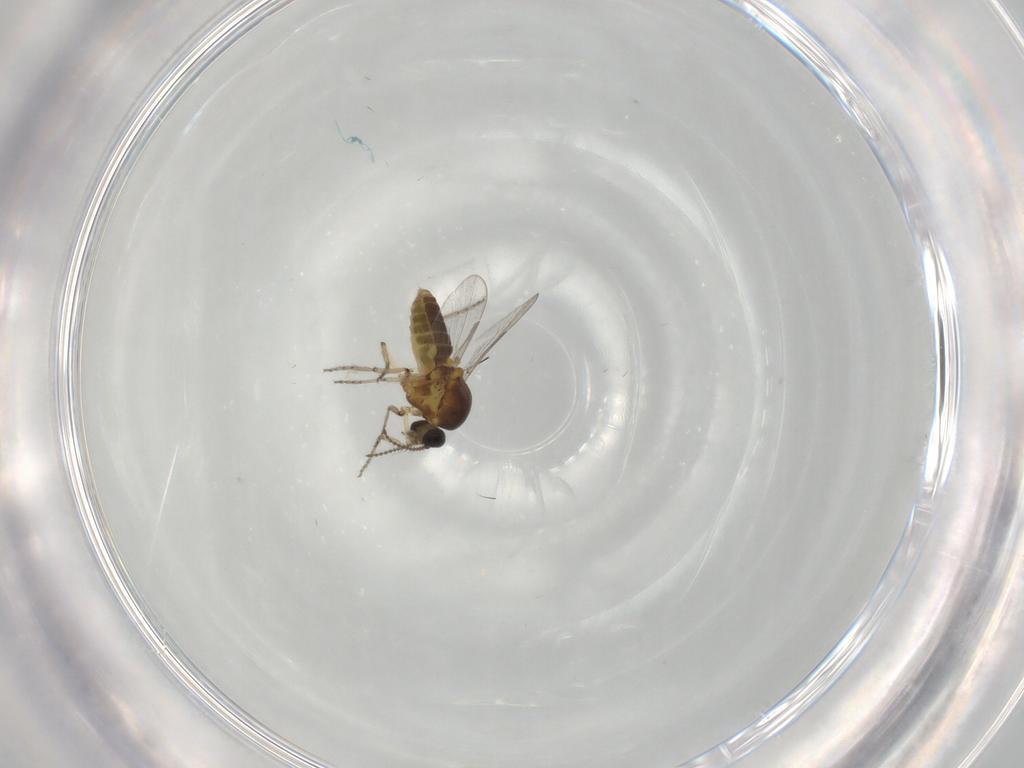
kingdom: Animalia
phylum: Arthropoda
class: Insecta
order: Diptera
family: Ceratopogonidae
